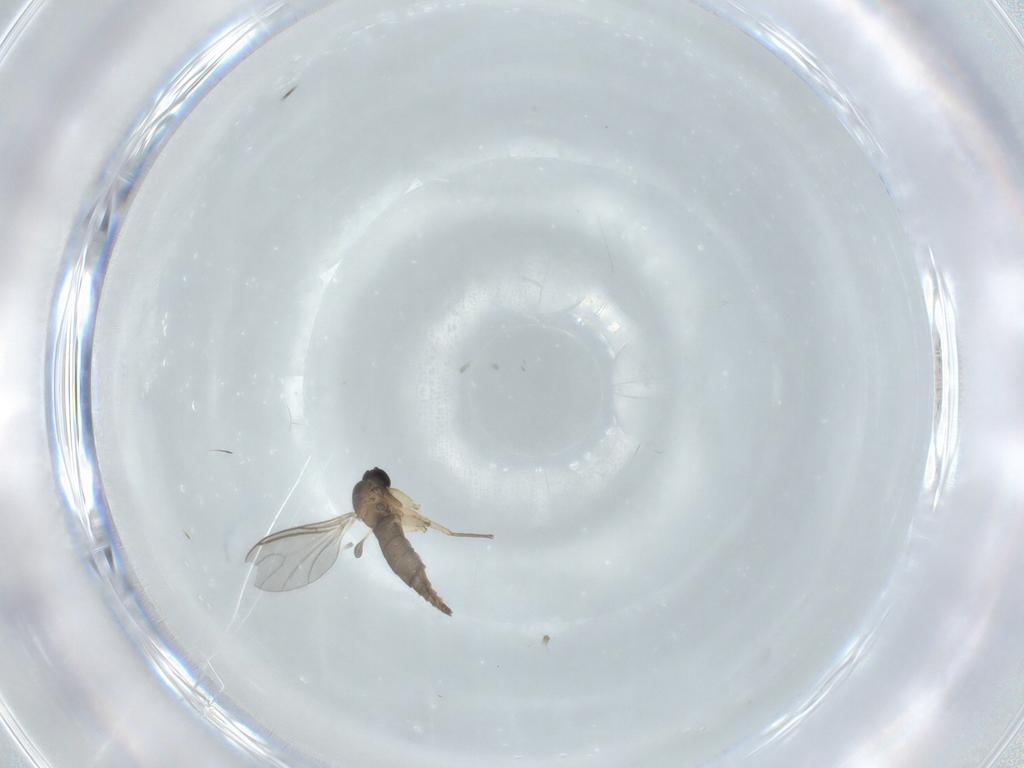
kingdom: Animalia
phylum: Arthropoda
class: Insecta
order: Diptera
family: Sciaridae
